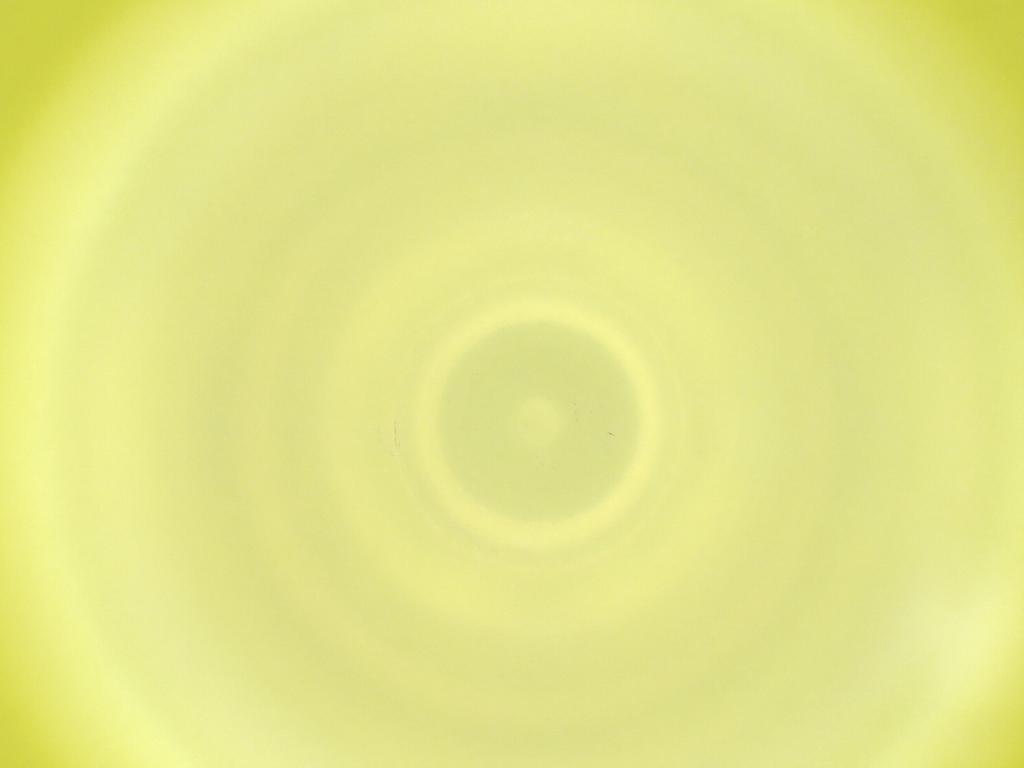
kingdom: Animalia
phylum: Arthropoda
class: Insecta
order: Diptera
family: Cecidomyiidae
